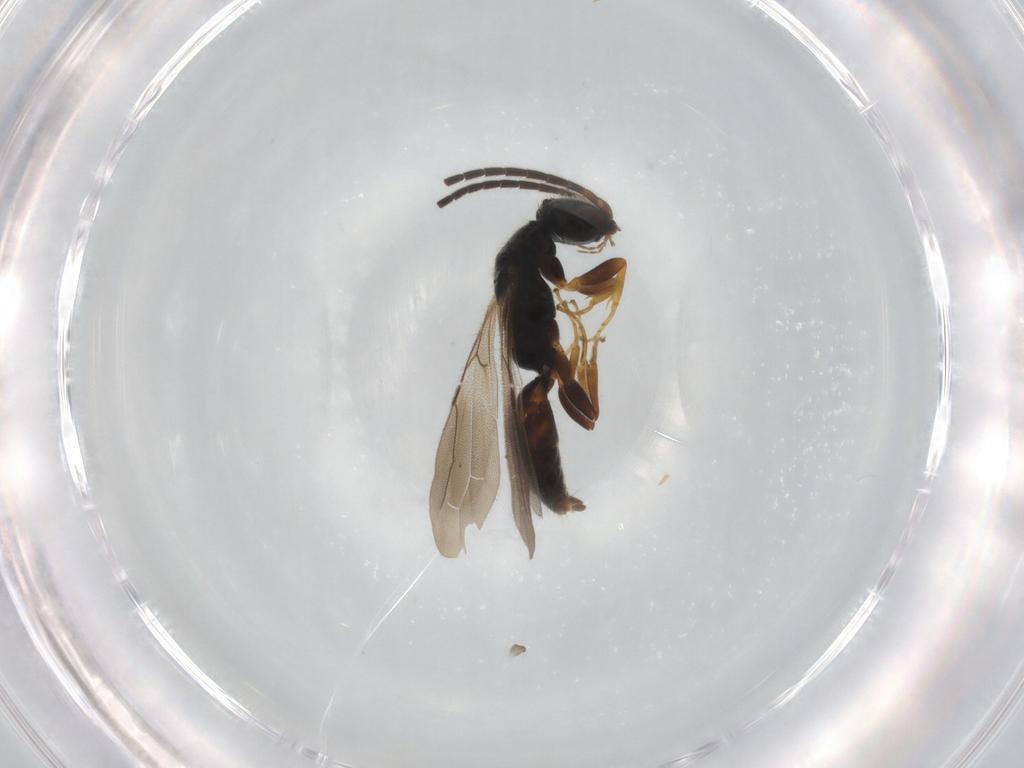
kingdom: Animalia
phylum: Arthropoda
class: Insecta
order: Hymenoptera
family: Bethylidae
